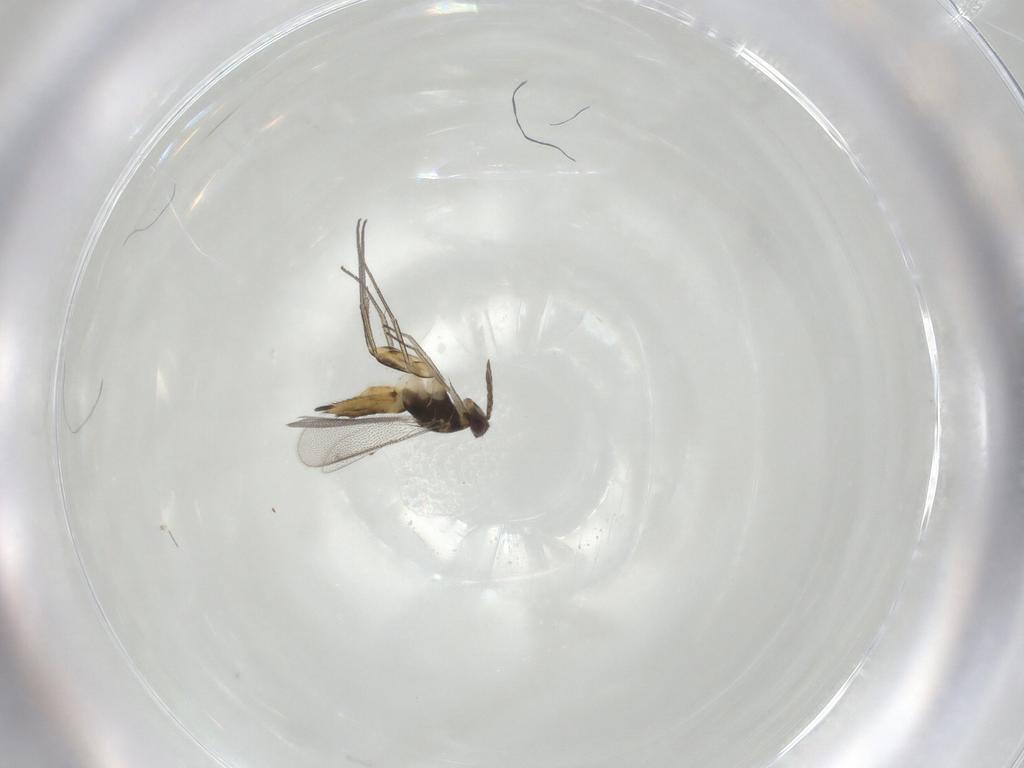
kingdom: Animalia
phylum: Arthropoda
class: Insecta
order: Hymenoptera
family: Eulophidae
